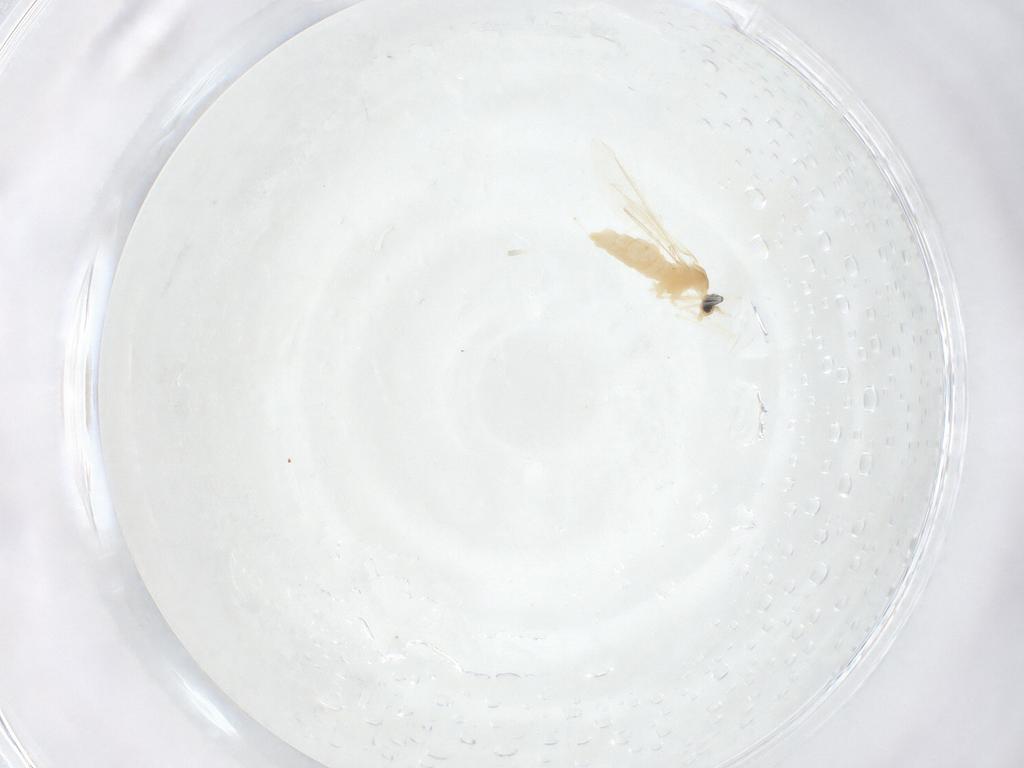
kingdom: Animalia
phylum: Arthropoda
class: Insecta
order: Diptera
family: Cecidomyiidae
